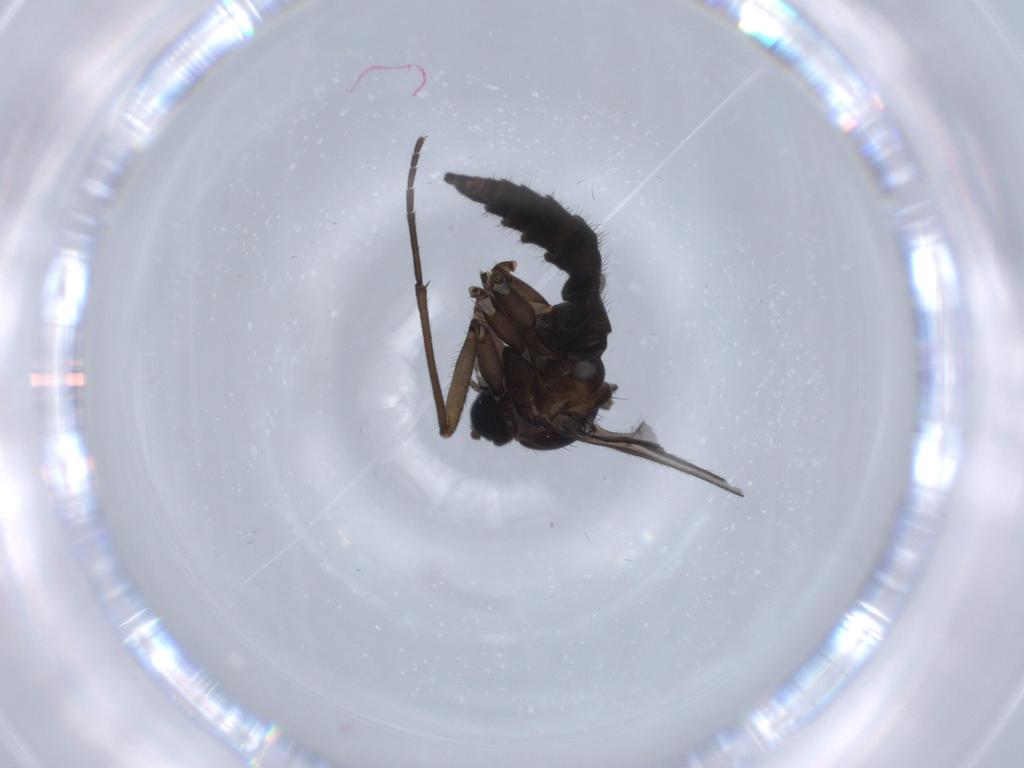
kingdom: Animalia
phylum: Arthropoda
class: Insecta
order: Diptera
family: Sciaridae
